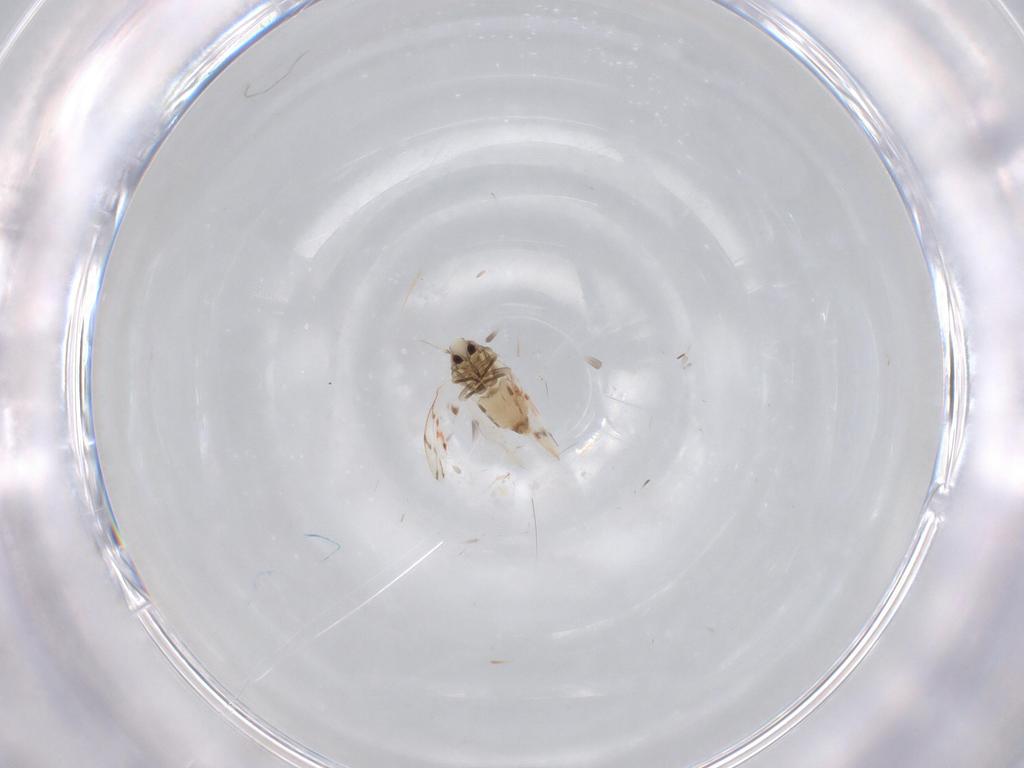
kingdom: Animalia
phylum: Arthropoda
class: Insecta
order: Hemiptera
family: Aleyrodidae
